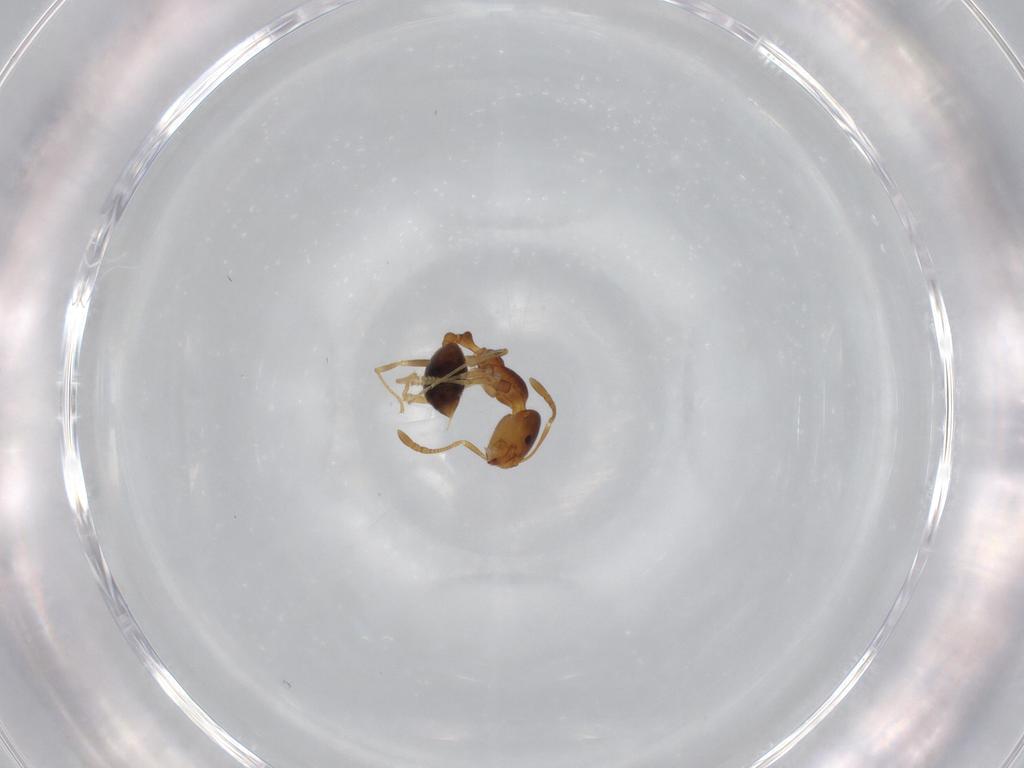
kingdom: Animalia
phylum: Arthropoda
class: Insecta
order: Hymenoptera
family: Formicidae
